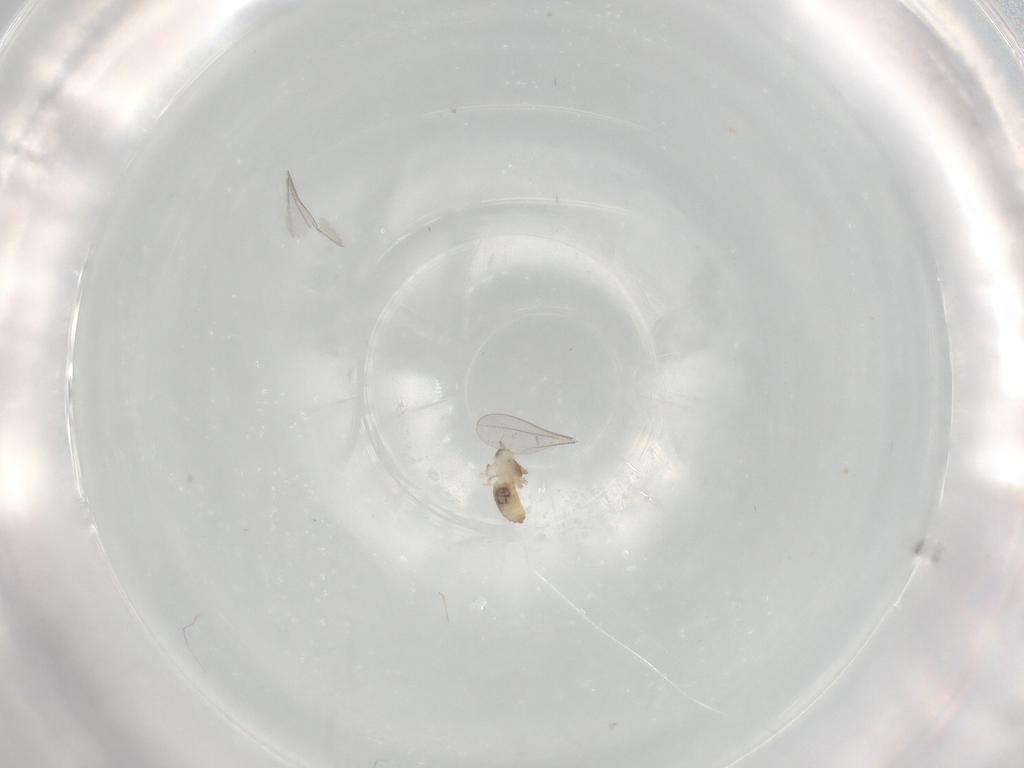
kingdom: Animalia
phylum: Arthropoda
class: Insecta
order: Diptera
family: Cecidomyiidae
